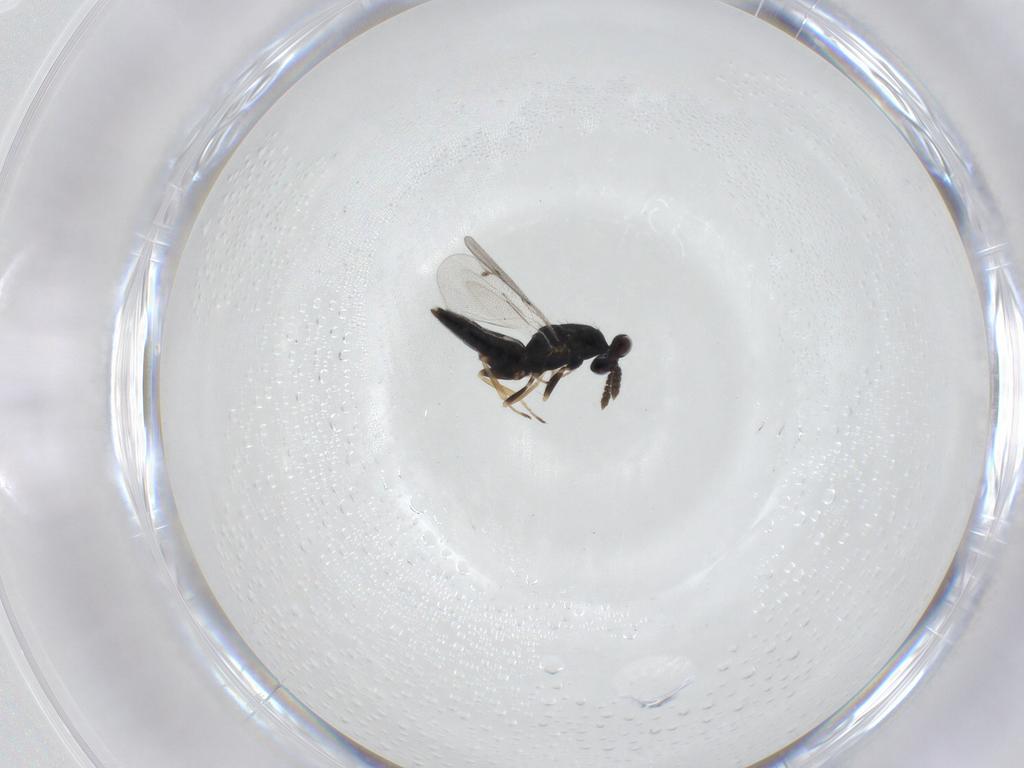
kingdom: Animalia
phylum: Arthropoda
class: Insecta
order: Hymenoptera
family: Eulophidae
